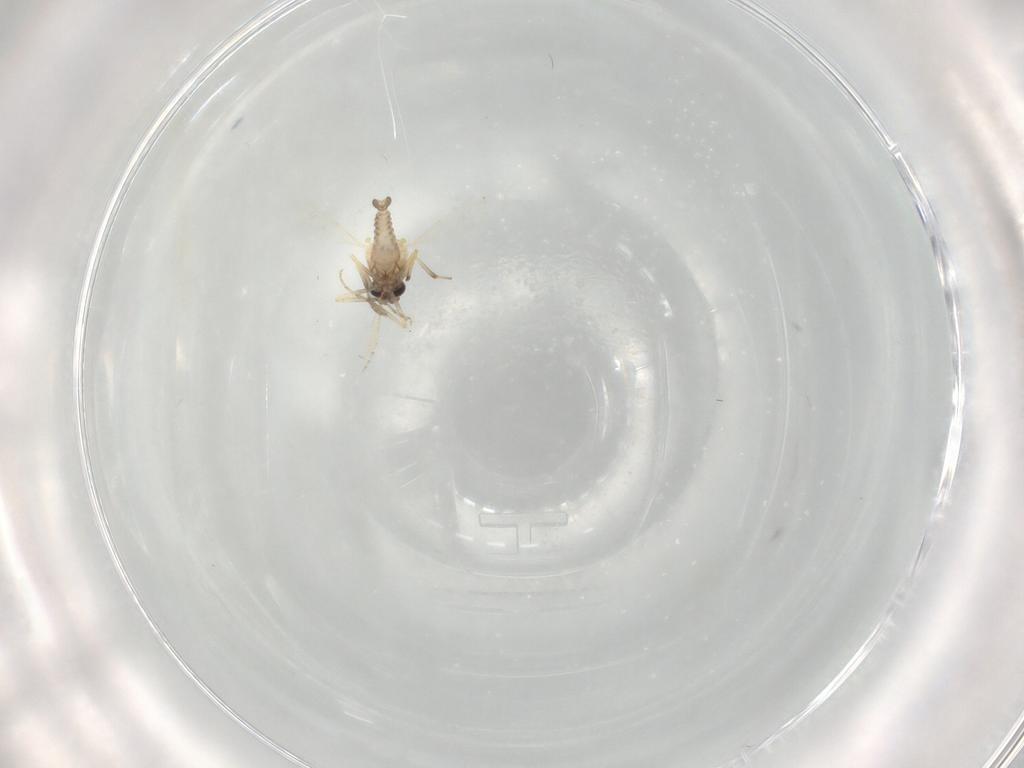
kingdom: Animalia
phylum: Arthropoda
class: Insecta
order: Diptera
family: Ceratopogonidae
